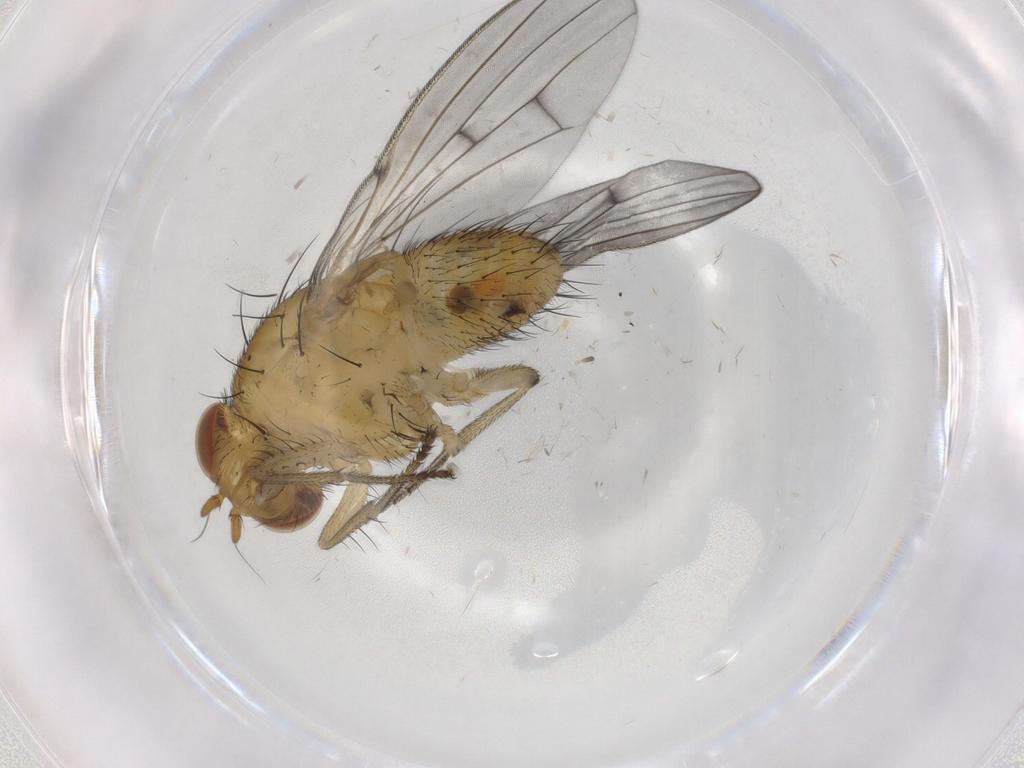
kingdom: Animalia
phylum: Arthropoda
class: Insecta
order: Diptera
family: Lauxaniidae
